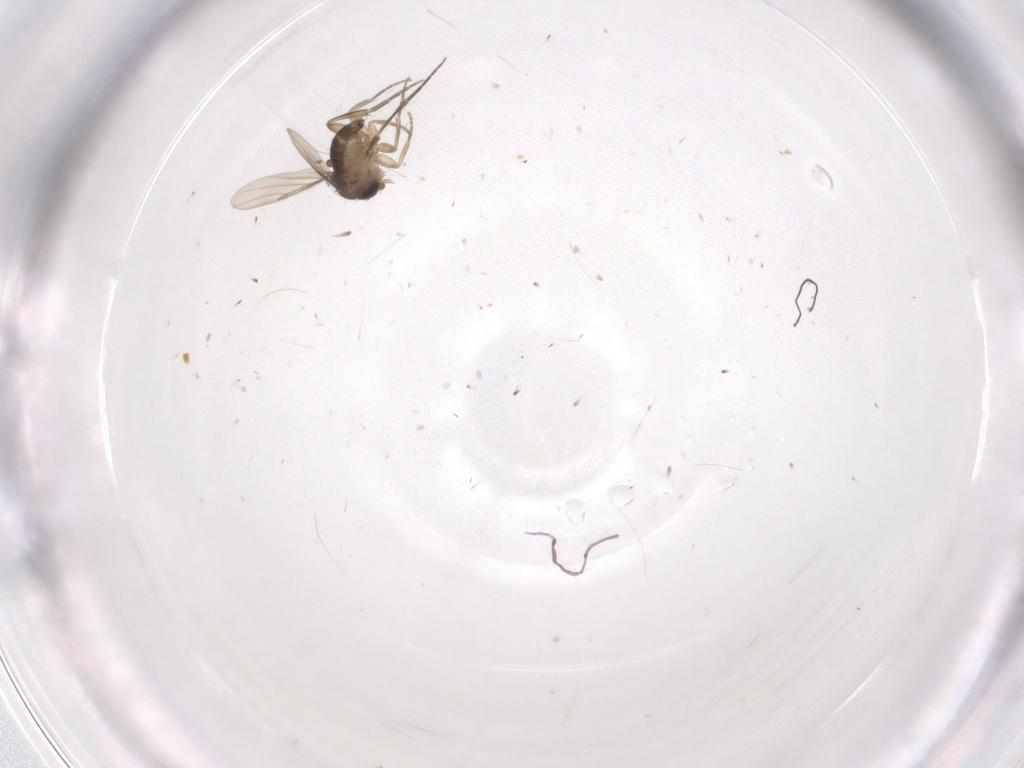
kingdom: Animalia
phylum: Arthropoda
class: Insecta
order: Diptera
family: Phoridae
